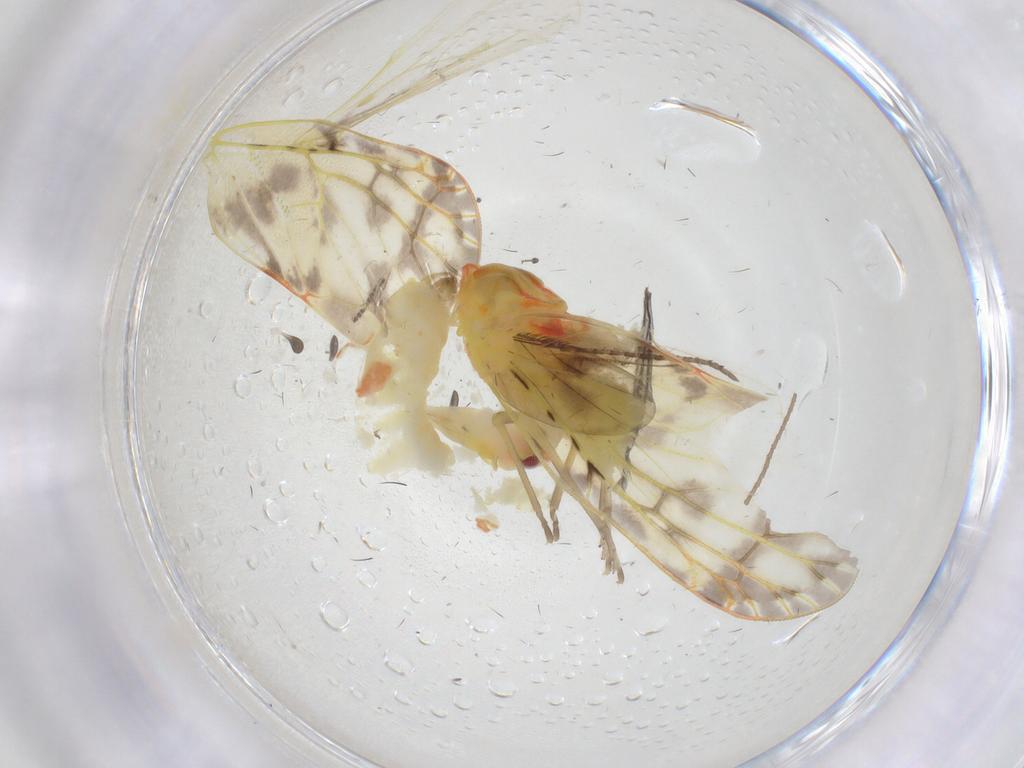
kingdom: Animalia
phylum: Arthropoda
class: Insecta
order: Hemiptera
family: Derbidae
